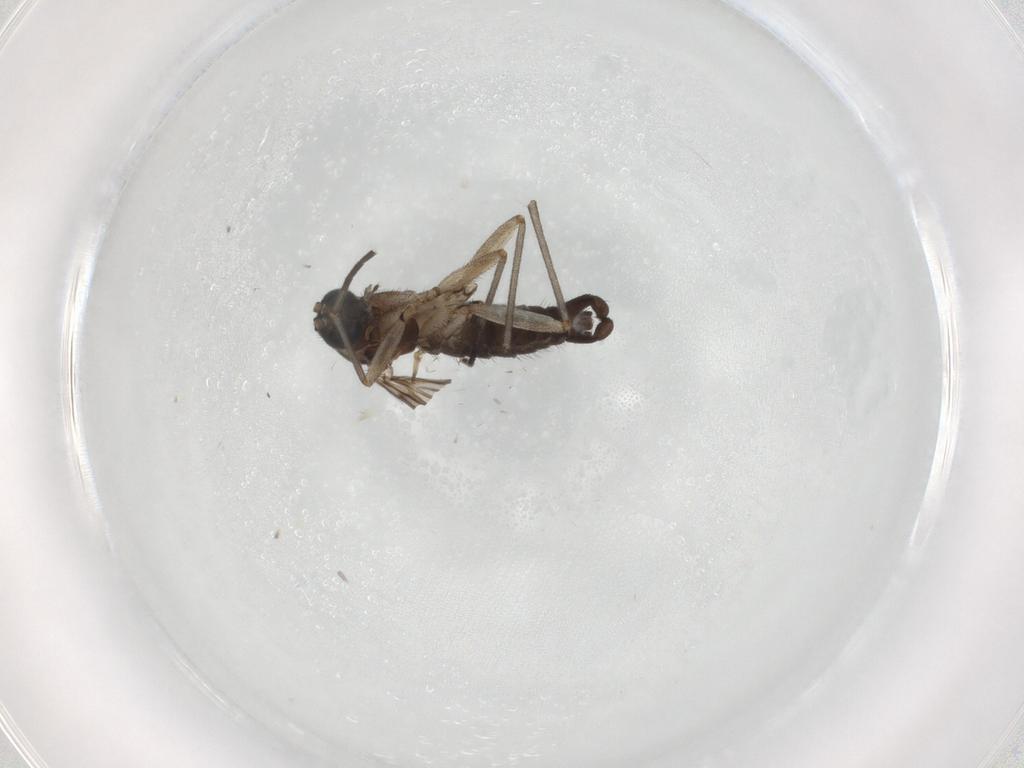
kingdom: Animalia
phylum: Arthropoda
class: Insecta
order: Diptera
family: Sciaridae
